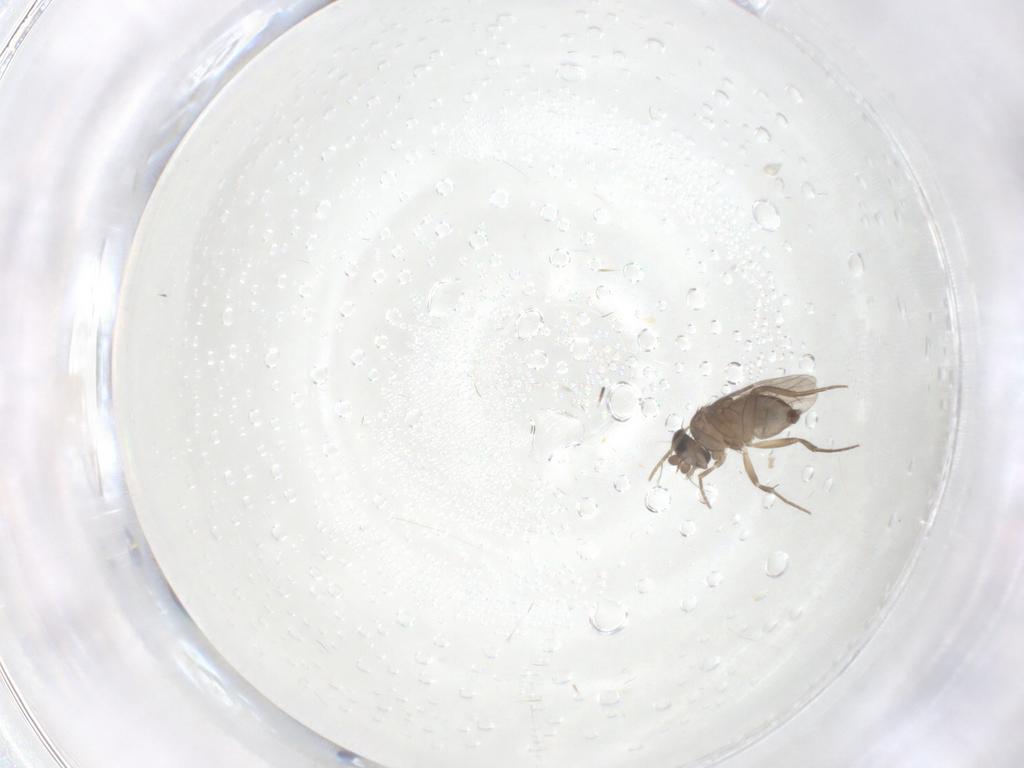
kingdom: Animalia
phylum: Arthropoda
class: Insecta
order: Diptera
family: Phoridae
